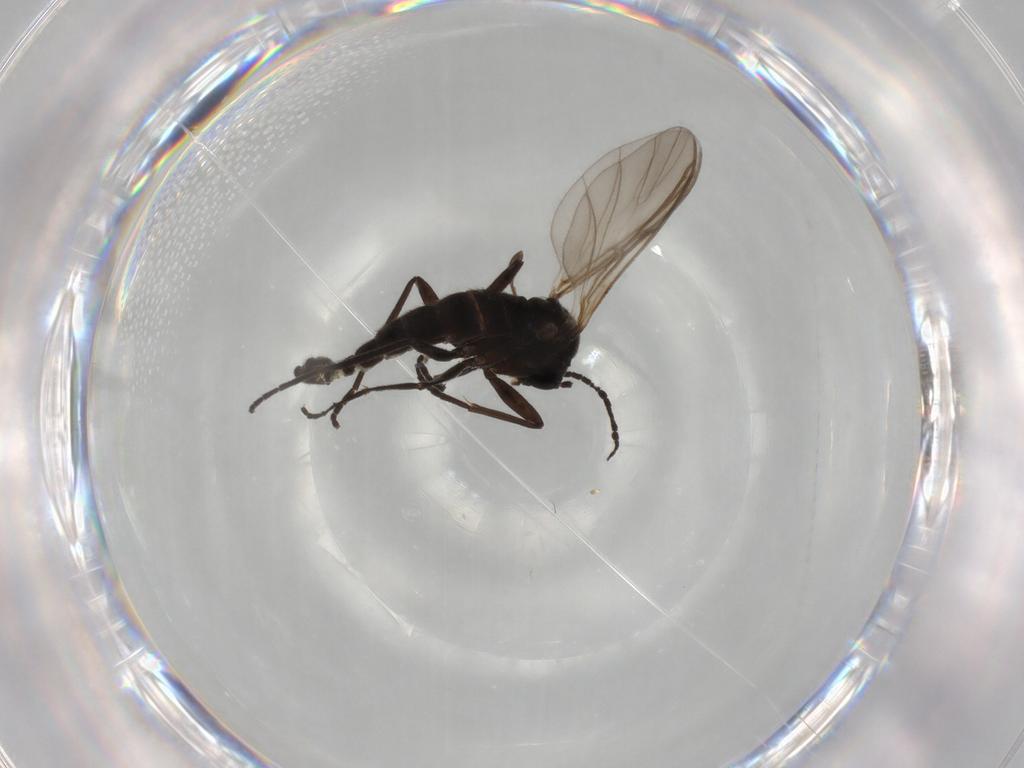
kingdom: Animalia
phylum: Arthropoda
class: Insecta
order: Diptera
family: Sciaridae
